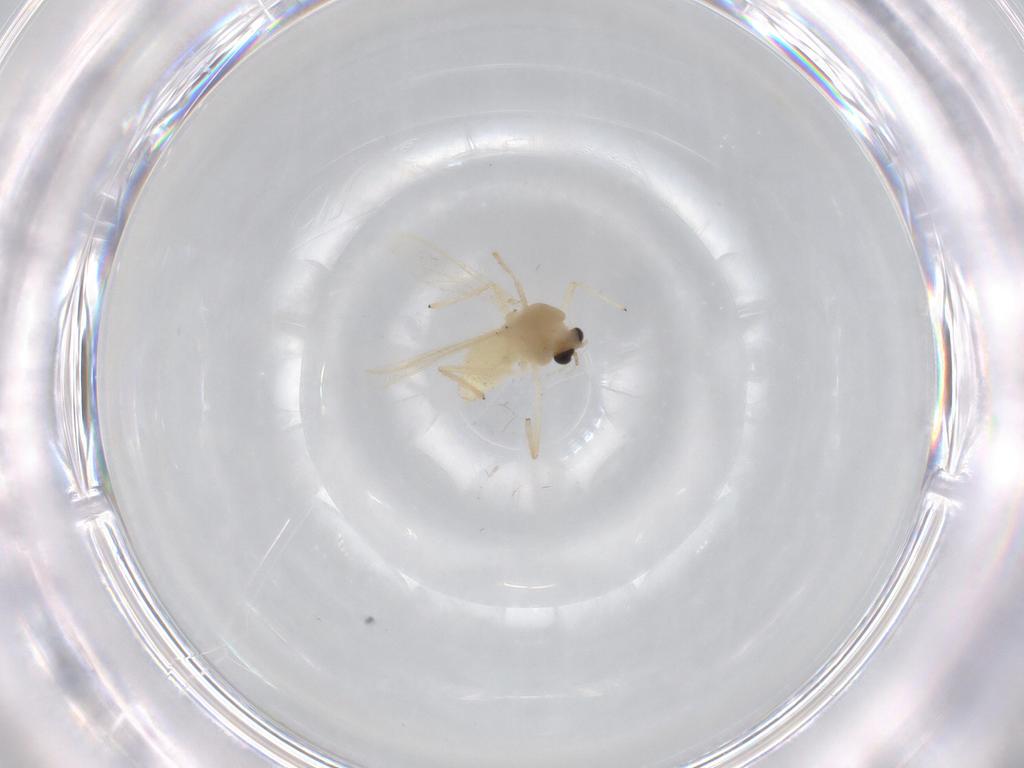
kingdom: Animalia
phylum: Arthropoda
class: Insecta
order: Diptera
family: Chironomidae
